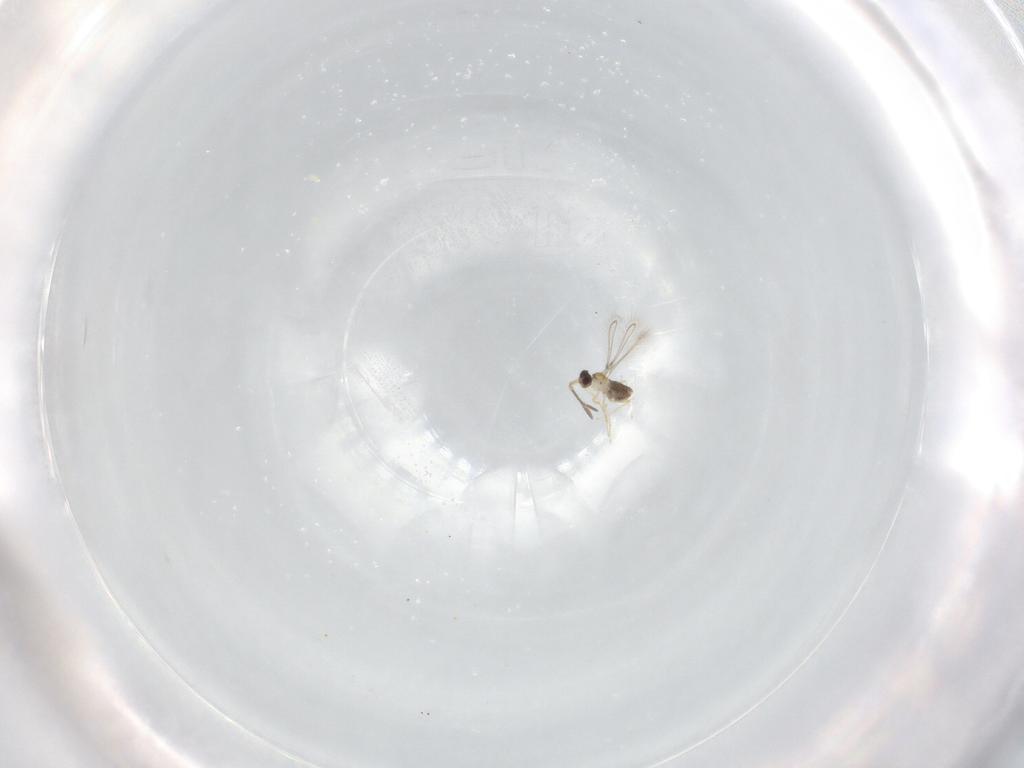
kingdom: Animalia
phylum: Arthropoda
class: Insecta
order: Hymenoptera
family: Mymaridae
